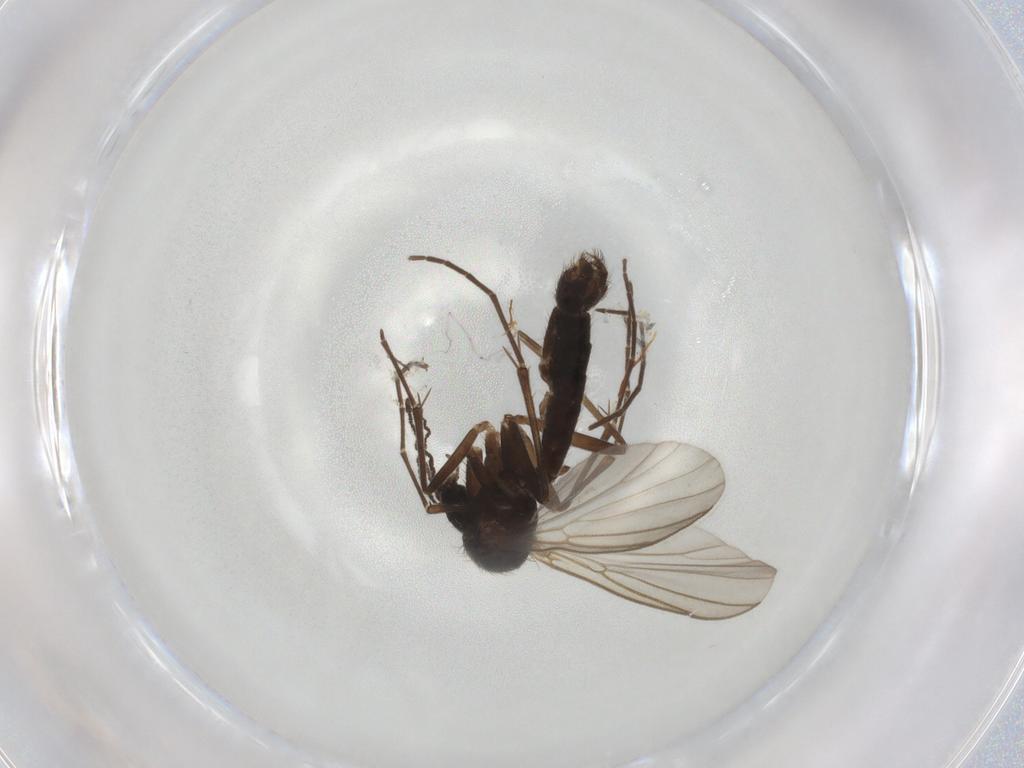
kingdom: Animalia
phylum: Arthropoda
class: Insecta
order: Diptera
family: Mycetophilidae
